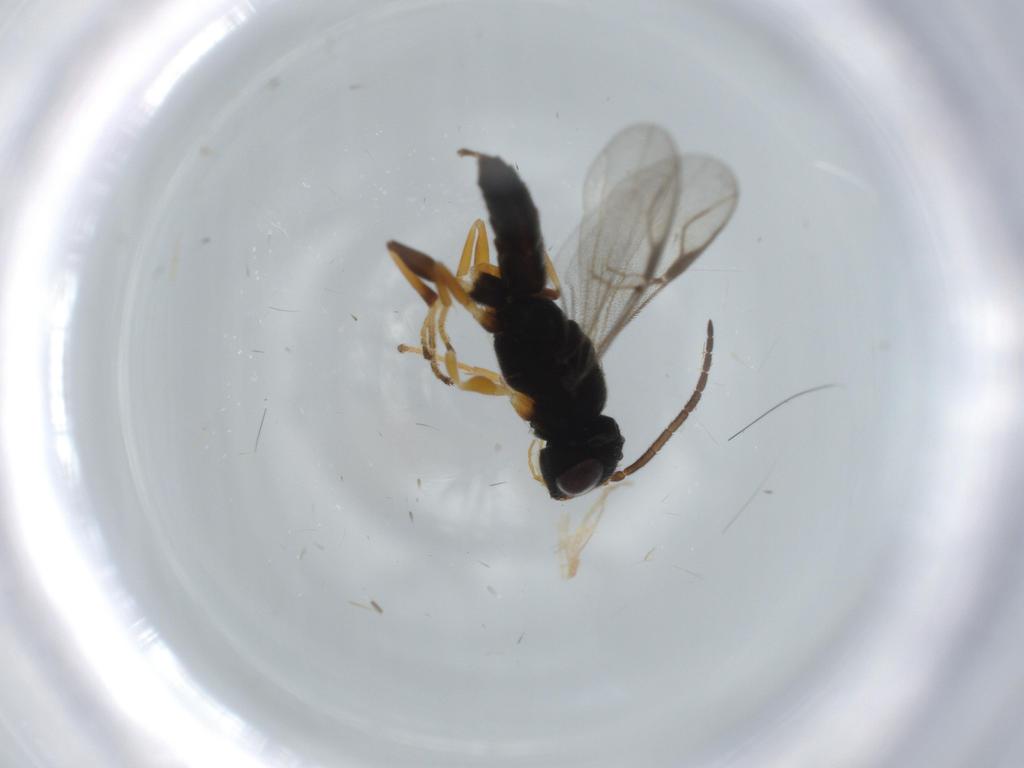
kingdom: Animalia
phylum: Arthropoda
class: Insecta
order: Hymenoptera
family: Dryinidae
